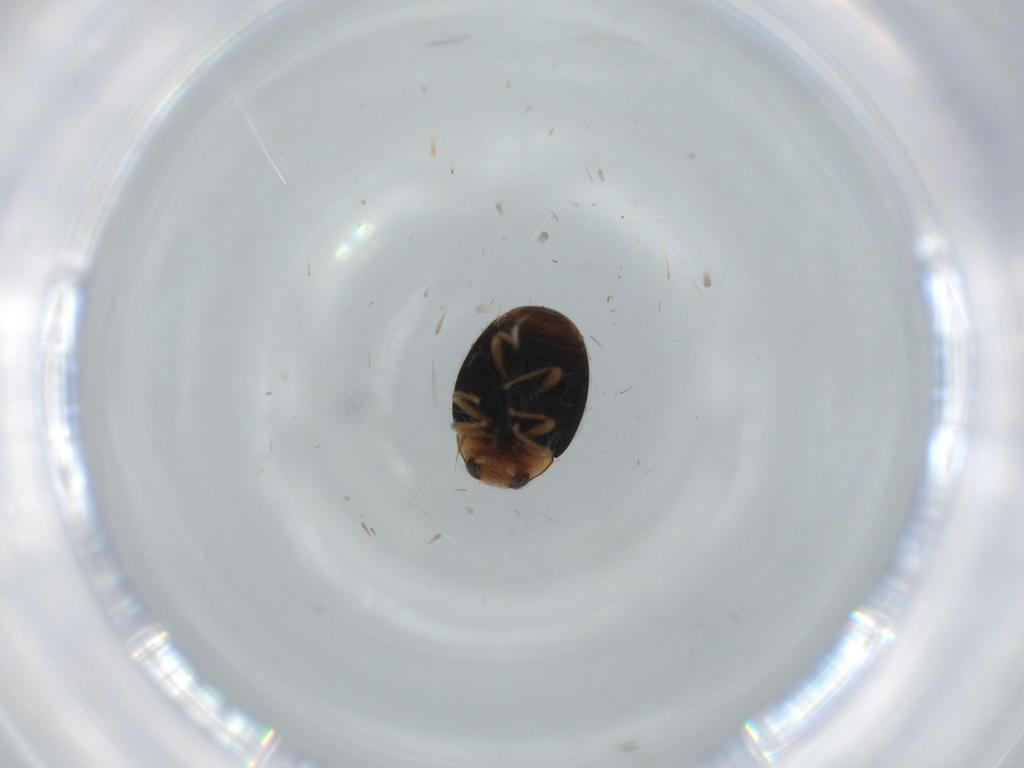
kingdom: Animalia
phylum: Arthropoda
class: Insecta
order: Coleoptera
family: Coccinellidae
